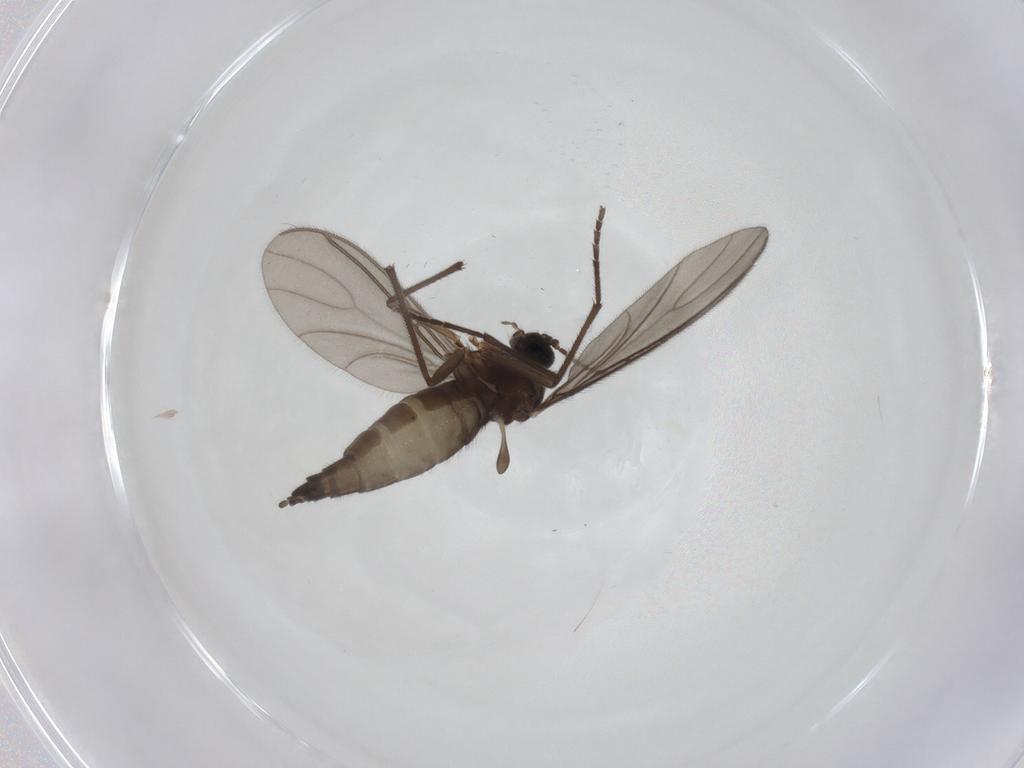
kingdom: Animalia
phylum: Arthropoda
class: Insecta
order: Diptera
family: Sciaridae
